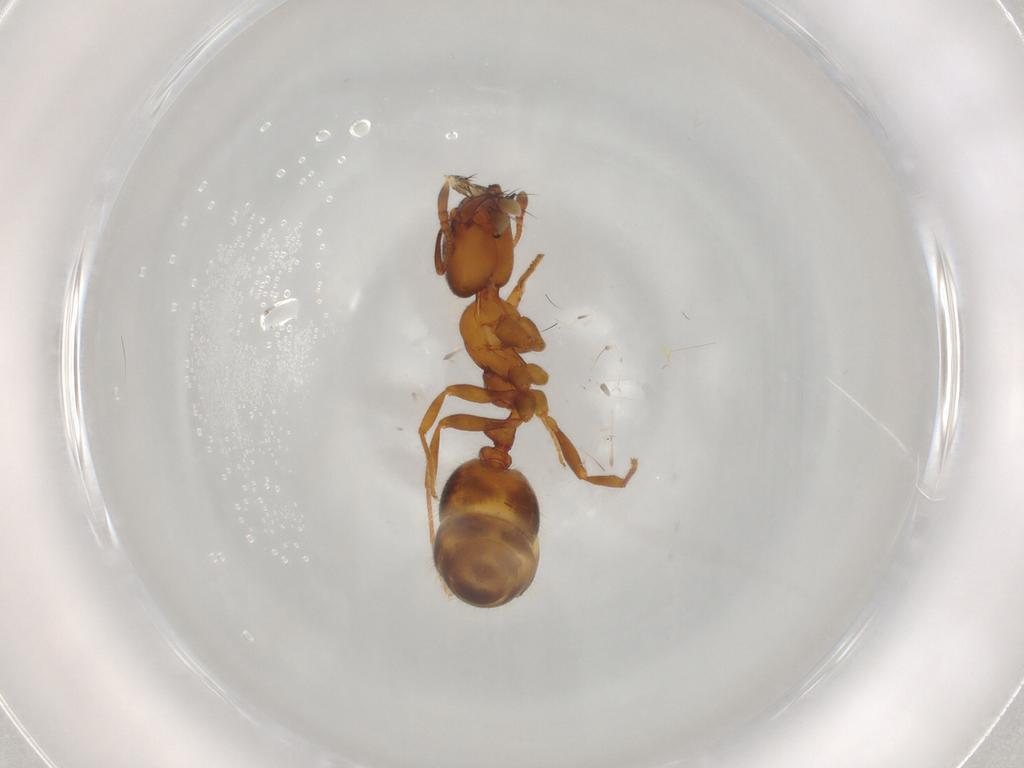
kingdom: Animalia
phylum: Arthropoda
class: Insecta
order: Hymenoptera
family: Formicidae
